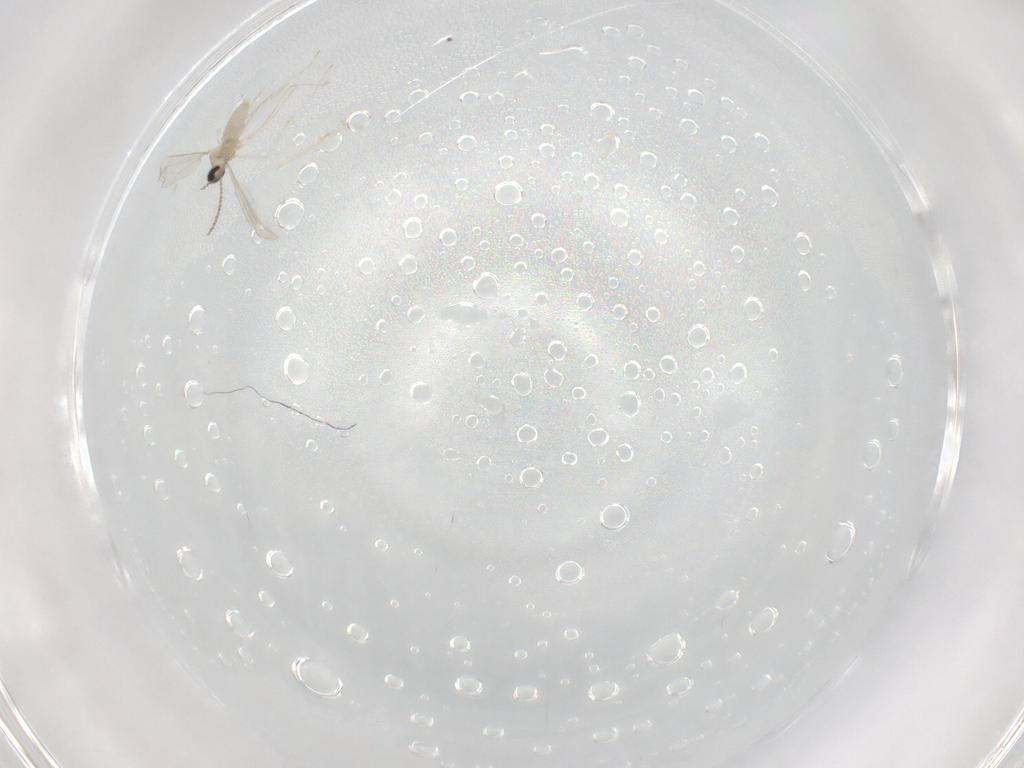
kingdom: Animalia
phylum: Arthropoda
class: Insecta
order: Diptera
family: Cecidomyiidae
